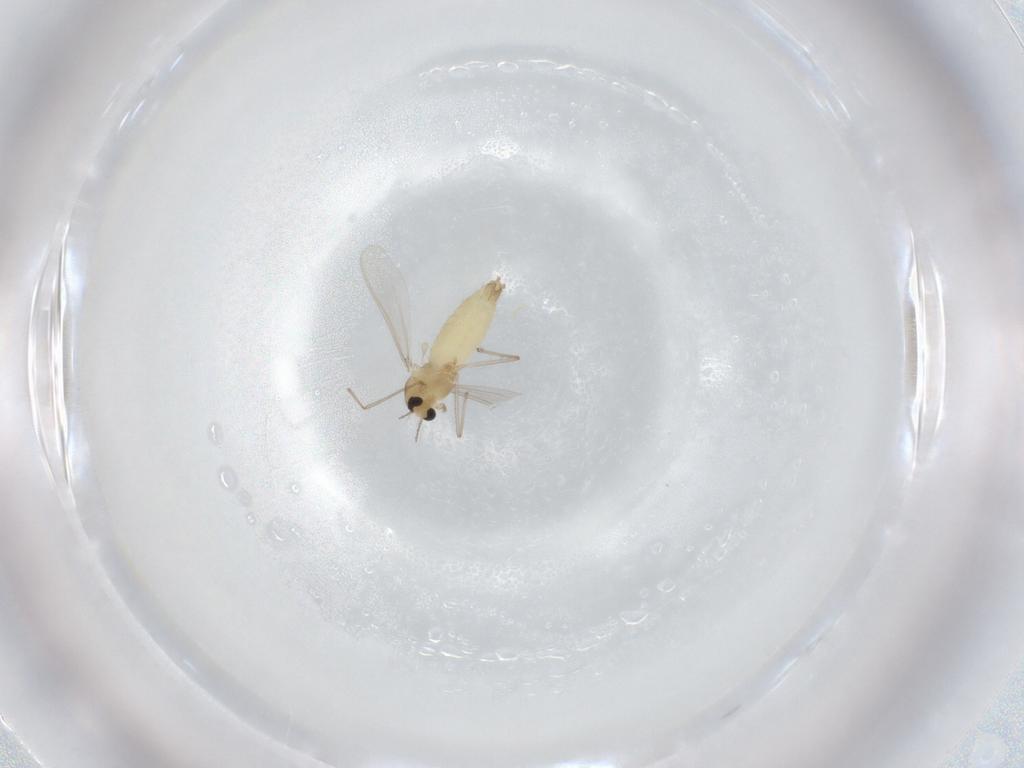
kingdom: Animalia
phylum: Arthropoda
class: Insecta
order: Diptera
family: Chironomidae
